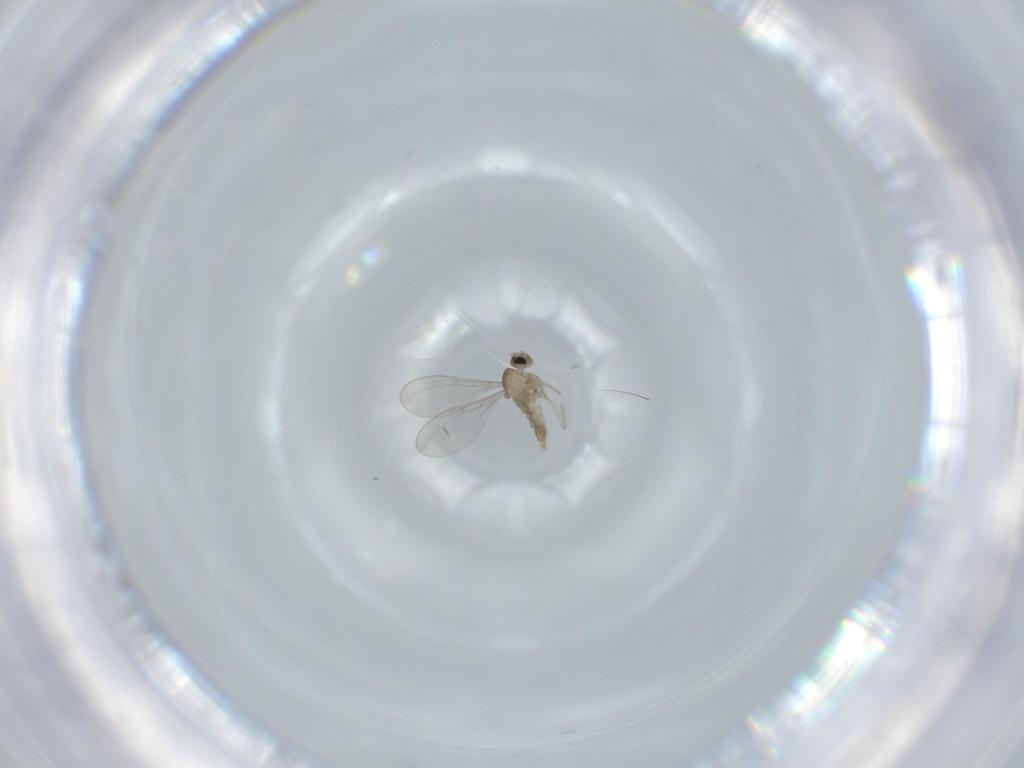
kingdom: Animalia
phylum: Arthropoda
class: Insecta
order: Diptera
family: Cecidomyiidae
